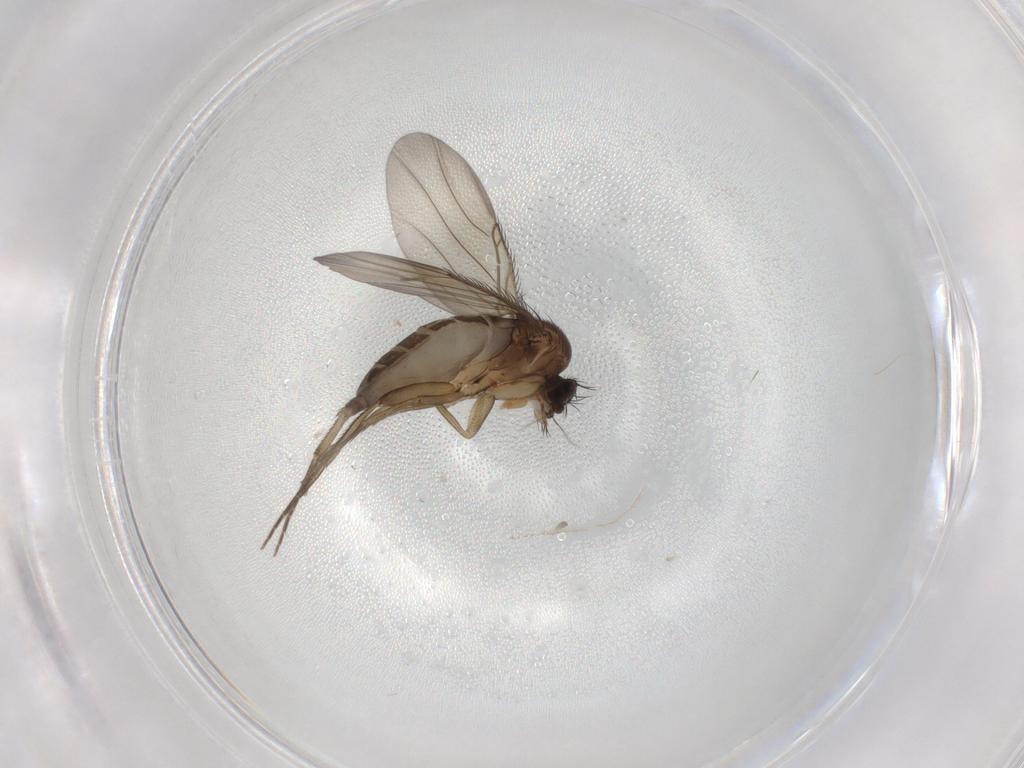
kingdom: Animalia
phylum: Arthropoda
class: Insecta
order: Diptera
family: Phoridae
